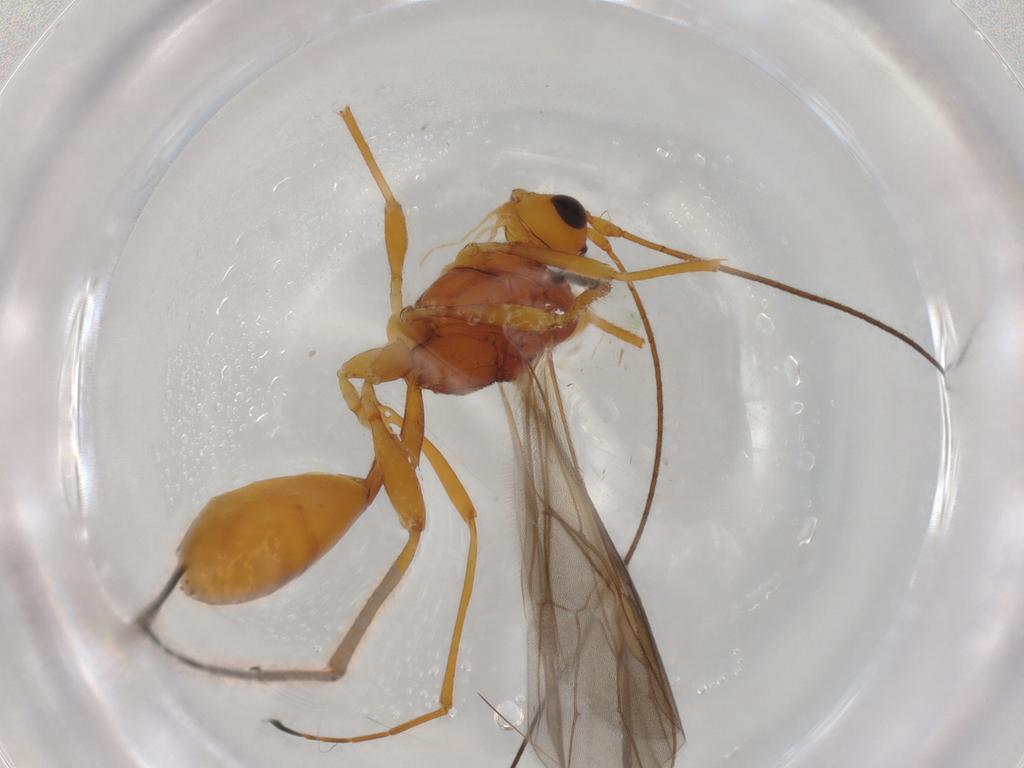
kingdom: Animalia
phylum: Arthropoda
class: Insecta
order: Hymenoptera
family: Braconidae
